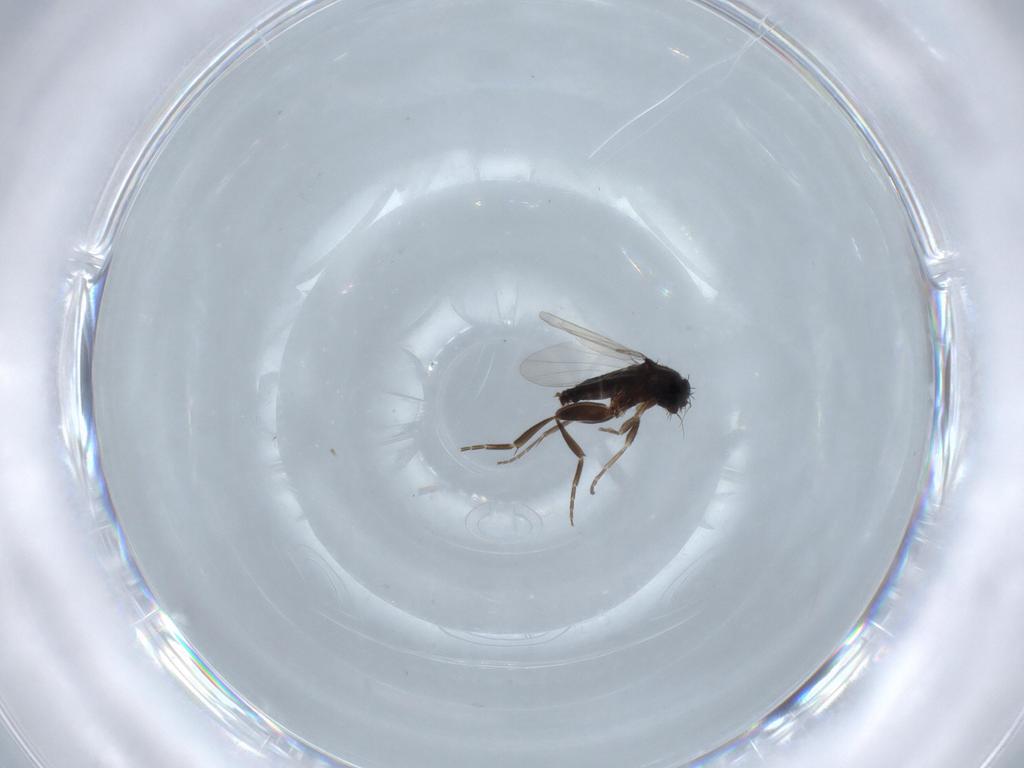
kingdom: Animalia
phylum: Arthropoda
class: Insecta
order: Diptera
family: Mycetophilidae
